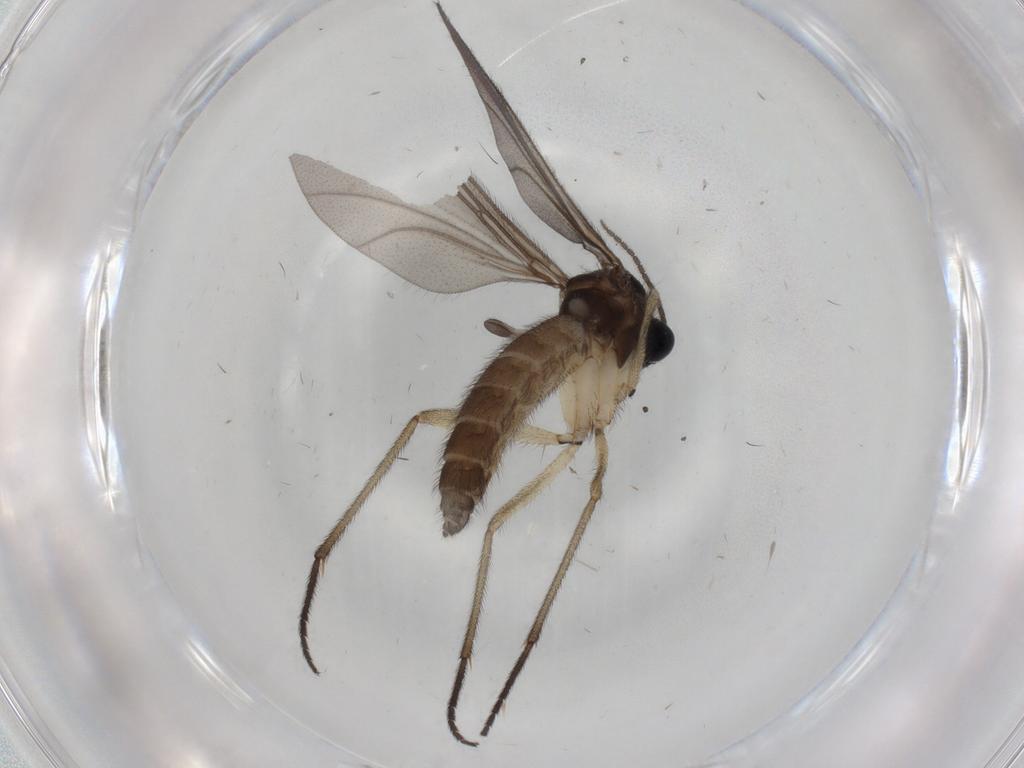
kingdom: Animalia
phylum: Arthropoda
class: Insecta
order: Diptera
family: Sciaridae
